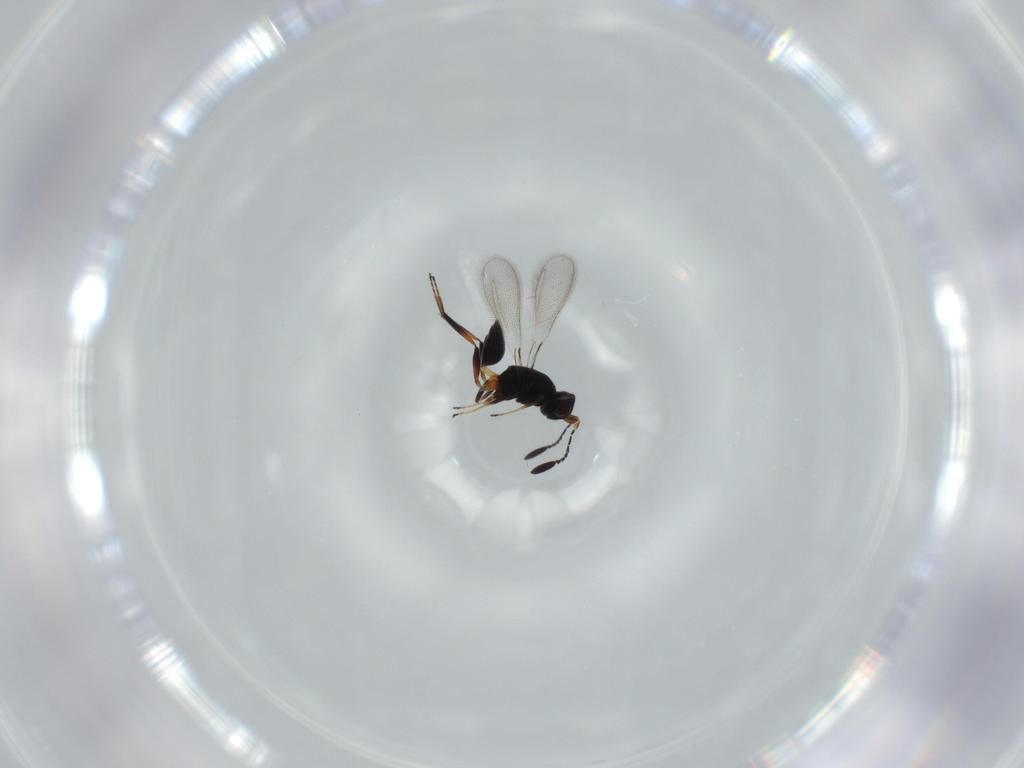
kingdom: Animalia
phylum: Arthropoda
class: Insecta
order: Hymenoptera
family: Mymaridae
